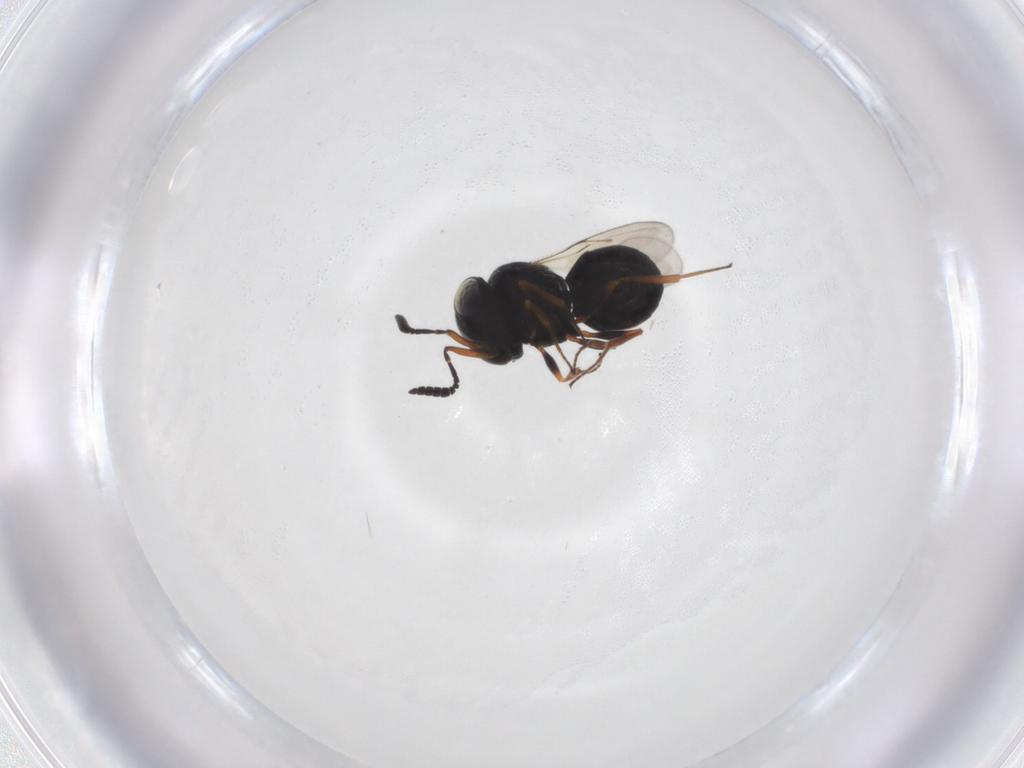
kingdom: Animalia
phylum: Arthropoda
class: Insecta
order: Hymenoptera
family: Scelionidae
